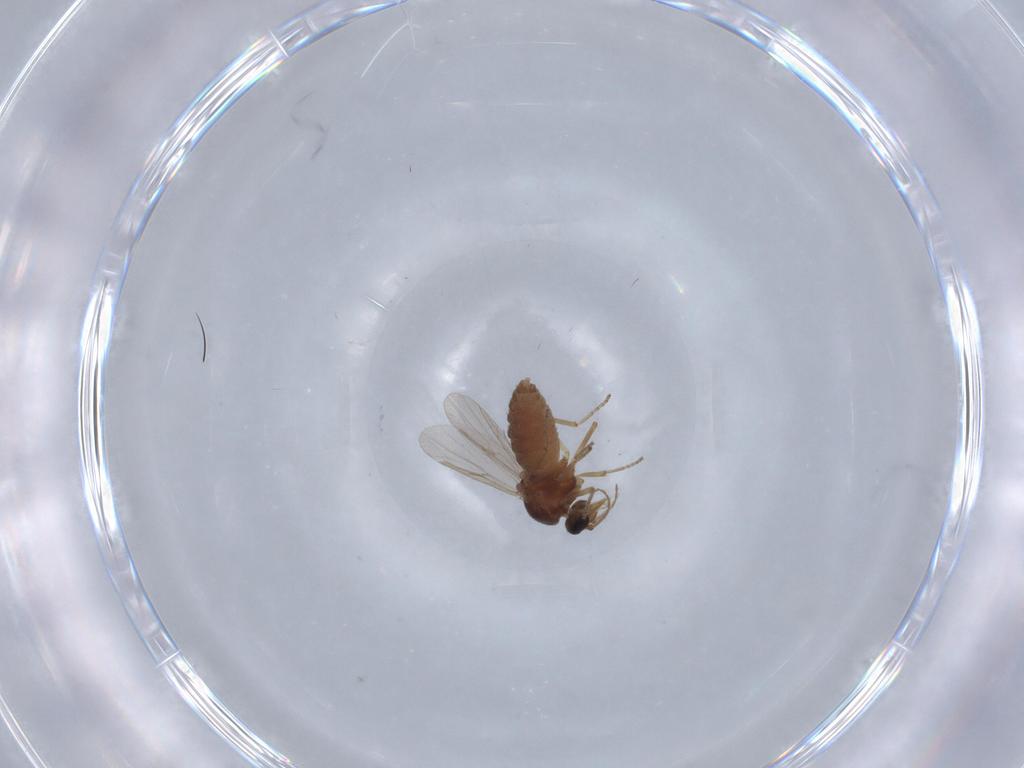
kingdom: Animalia
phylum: Arthropoda
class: Insecta
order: Diptera
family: Ceratopogonidae
